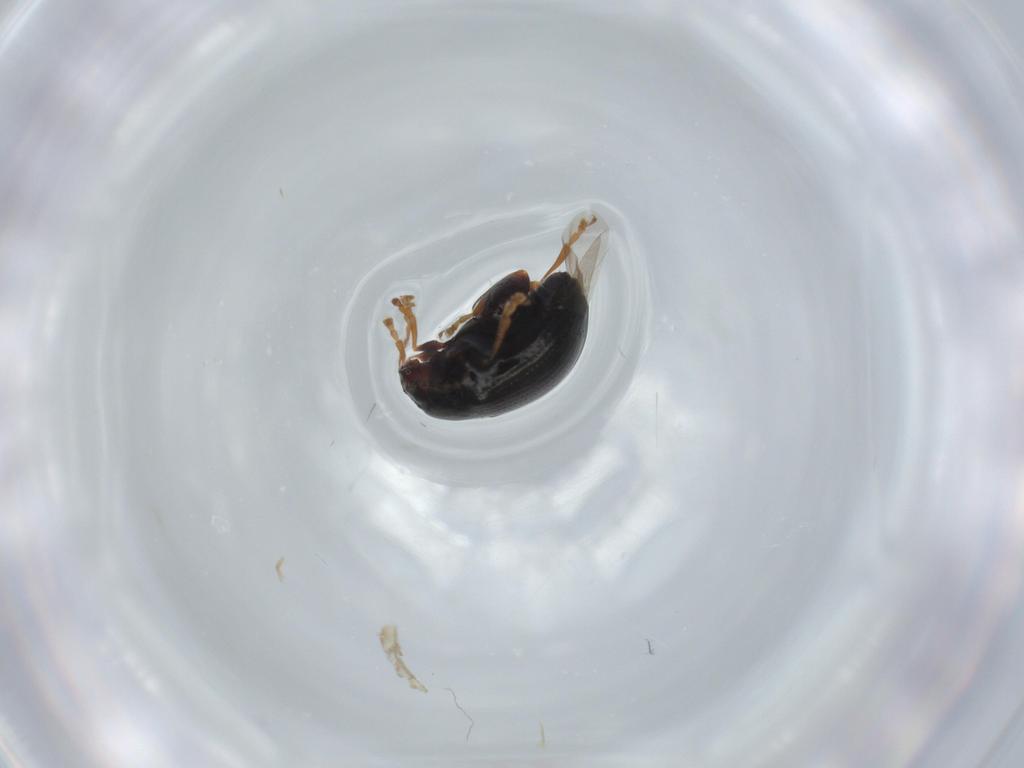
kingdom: Animalia
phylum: Arthropoda
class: Insecta
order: Coleoptera
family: Chrysomelidae
